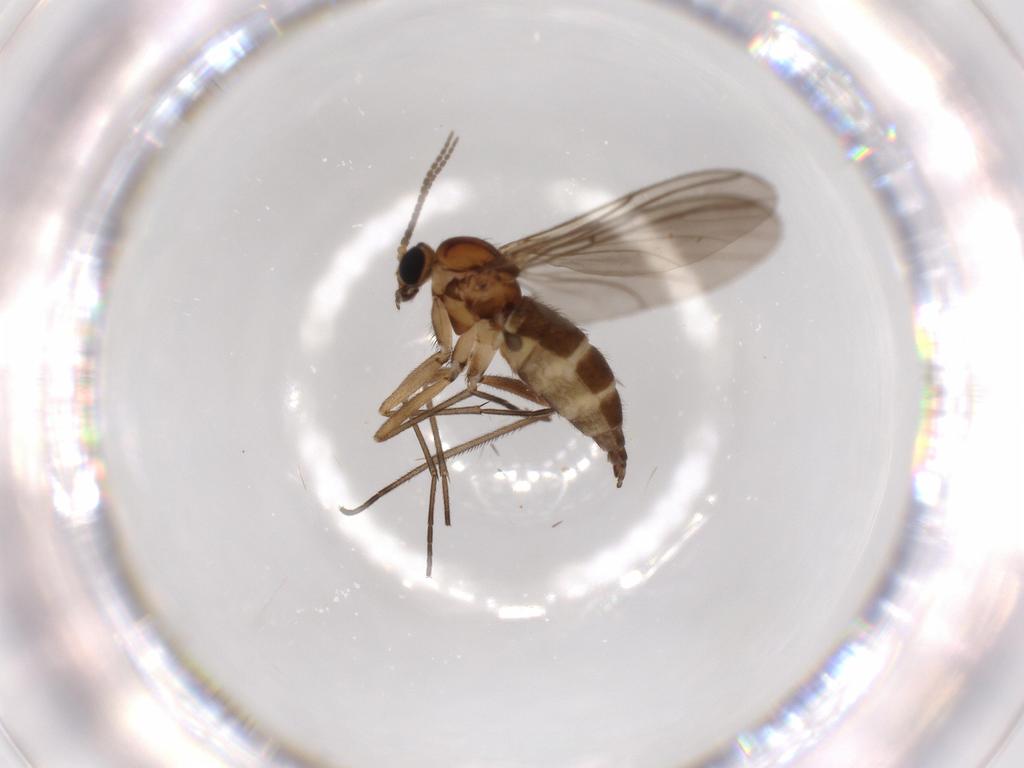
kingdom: Animalia
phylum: Arthropoda
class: Insecta
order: Diptera
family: Sciaridae
